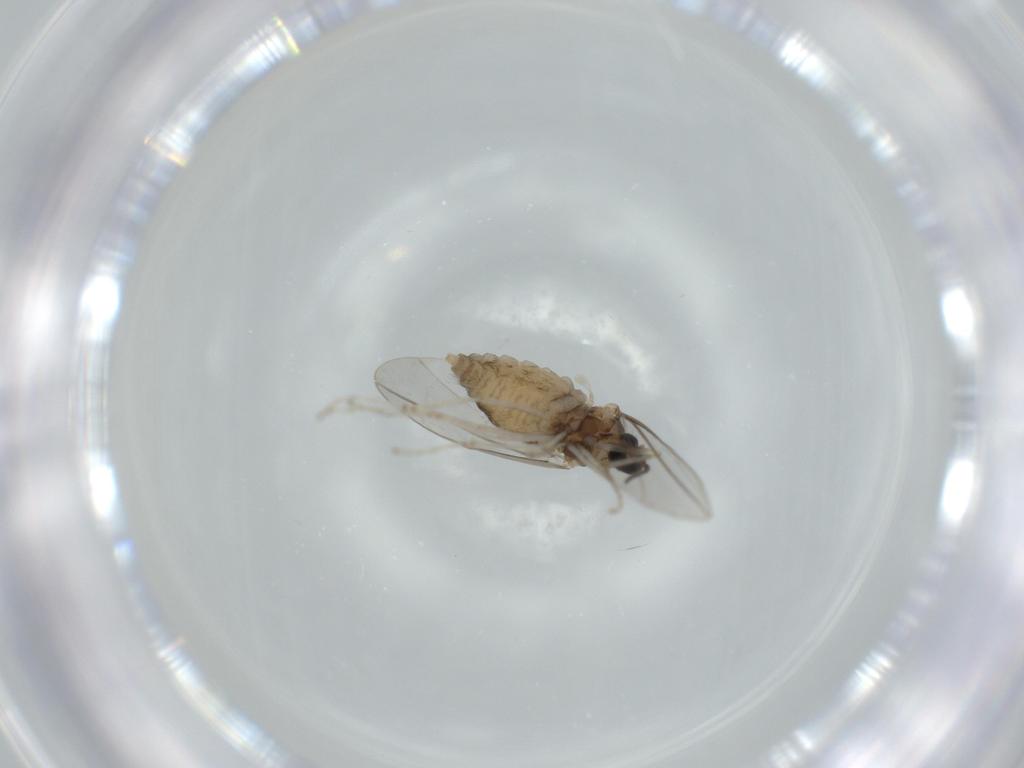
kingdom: Animalia
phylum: Arthropoda
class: Insecta
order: Diptera
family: Cecidomyiidae
